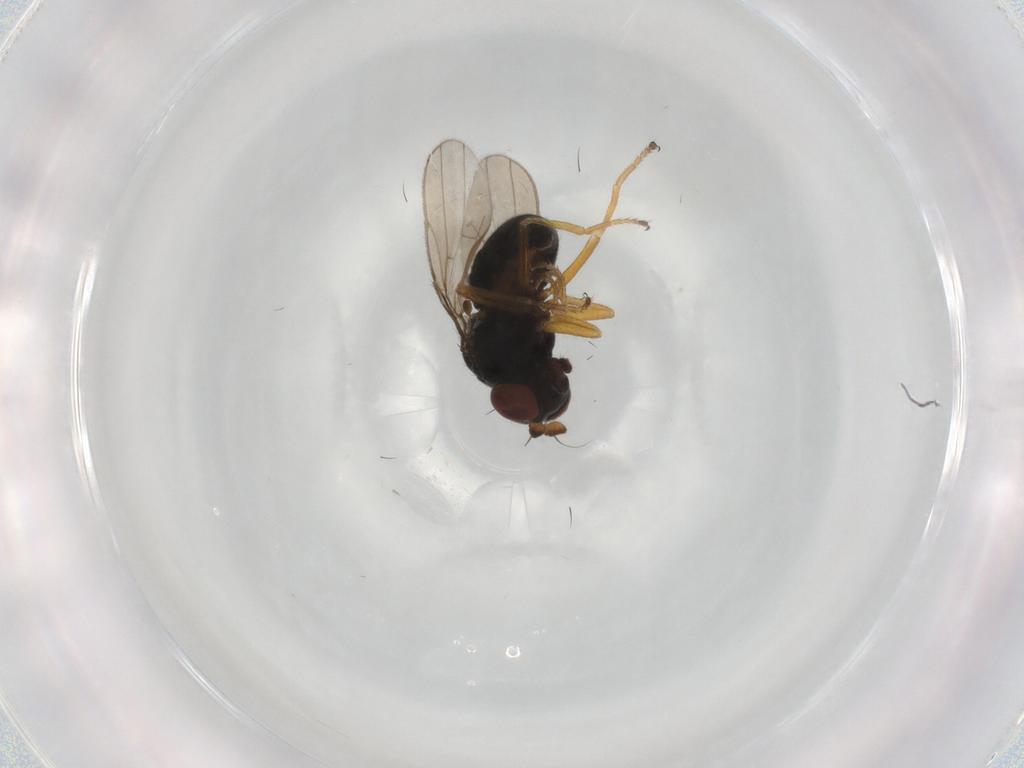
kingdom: Animalia
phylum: Arthropoda
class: Insecta
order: Diptera
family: Ephydridae
